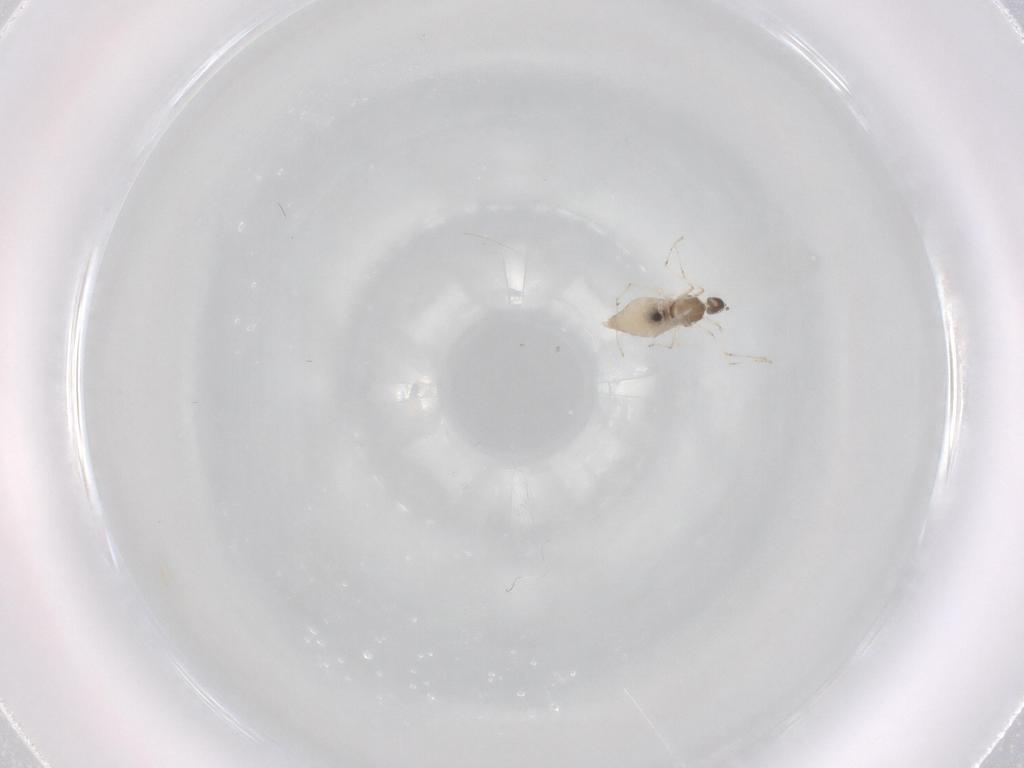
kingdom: Animalia
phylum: Arthropoda
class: Insecta
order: Diptera
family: Cecidomyiidae
